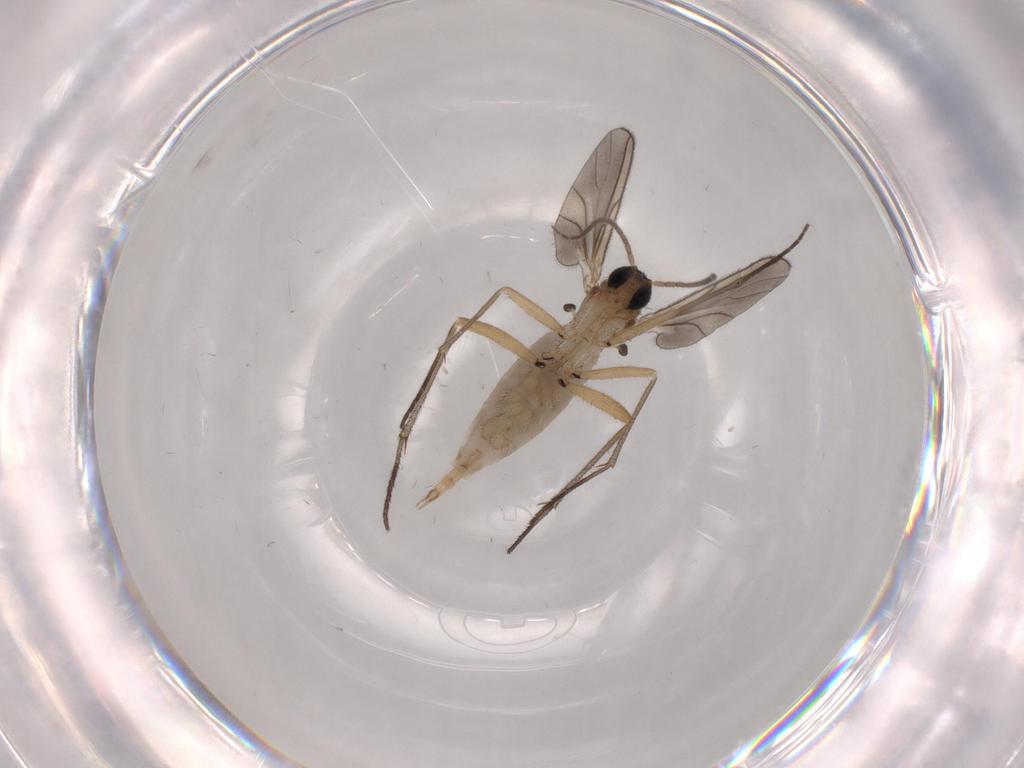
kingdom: Animalia
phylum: Arthropoda
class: Insecta
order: Diptera
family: Sciaridae
